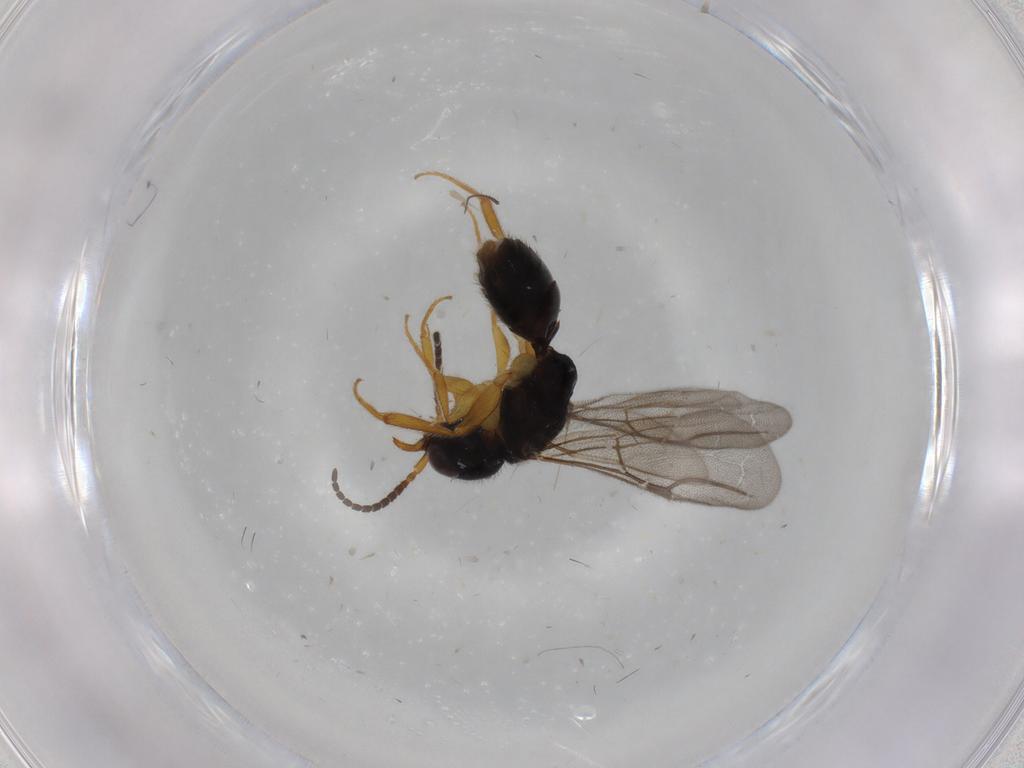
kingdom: Animalia
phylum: Arthropoda
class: Insecta
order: Hymenoptera
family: Bethylidae
